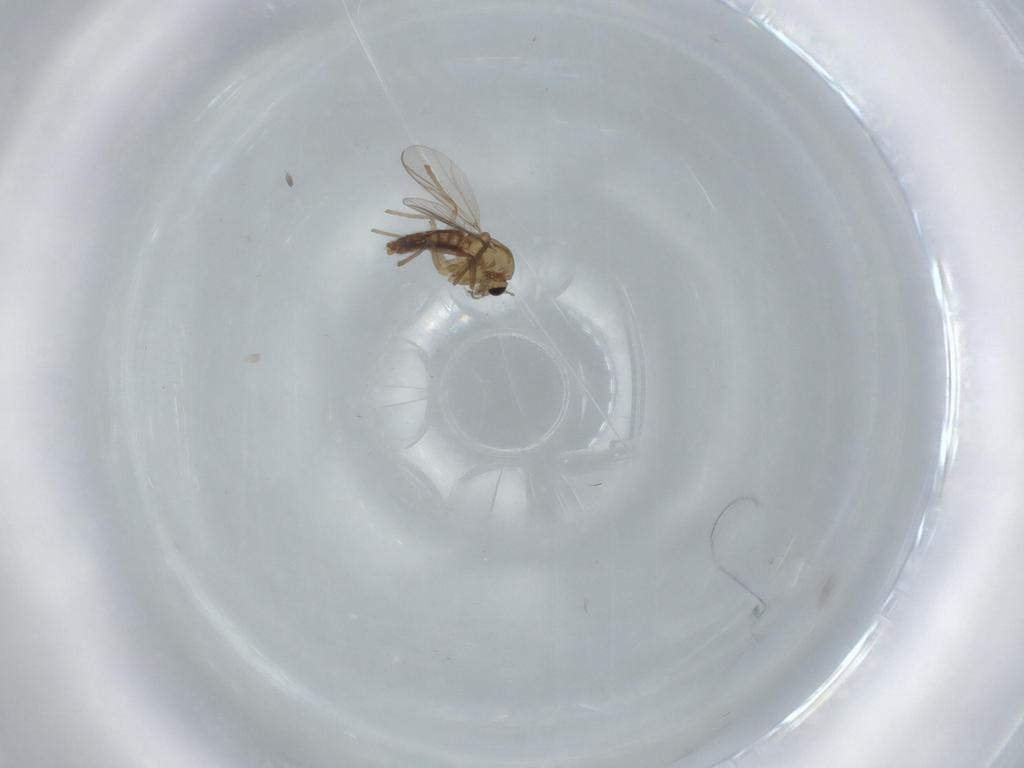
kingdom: Animalia
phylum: Arthropoda
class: Insecta
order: Diptera
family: Chironomidae
